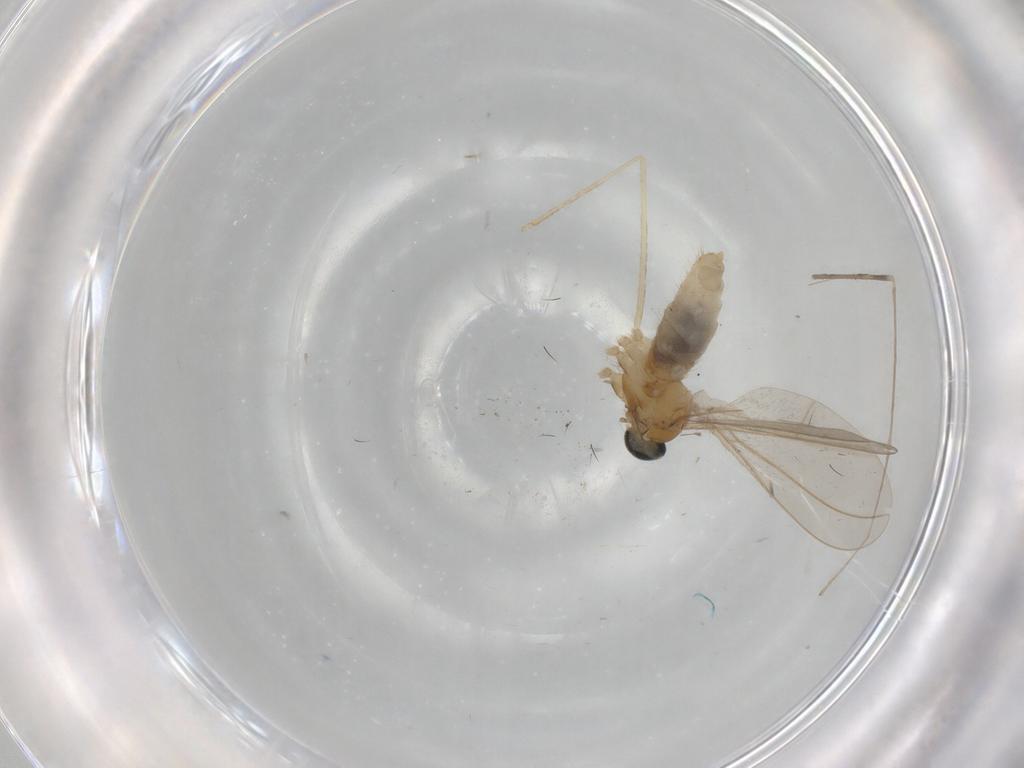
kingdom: Animalia
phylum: Arthropoda
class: Insecta
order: Diptera
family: Cecidomyiidae
